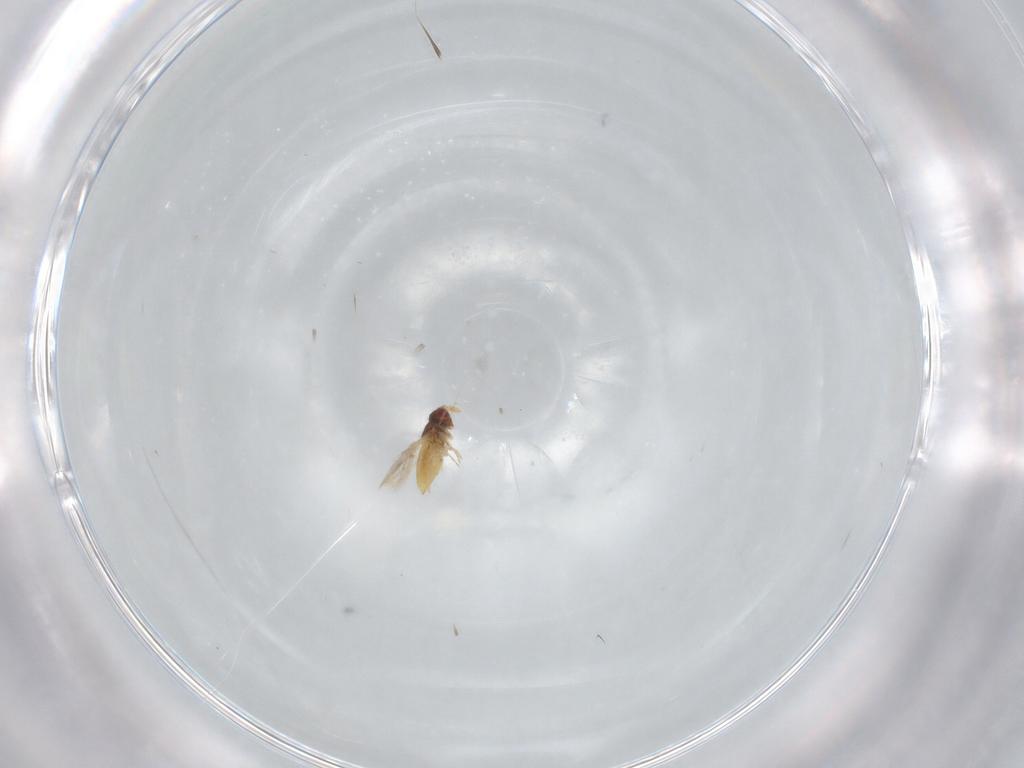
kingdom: Animalia
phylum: Arthropoda
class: Insecta
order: Hymenoptera
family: Trichogrammatidae
